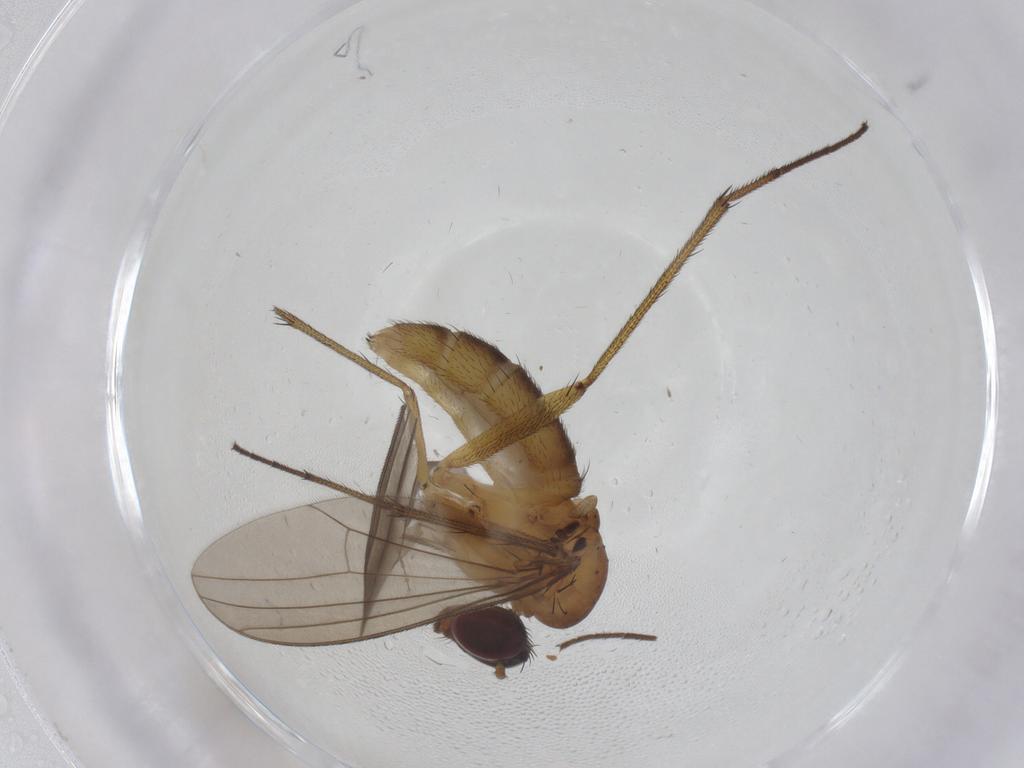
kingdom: Animalia
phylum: Arthropoda
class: Insecta
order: Diptera
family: Dolichopodidae
